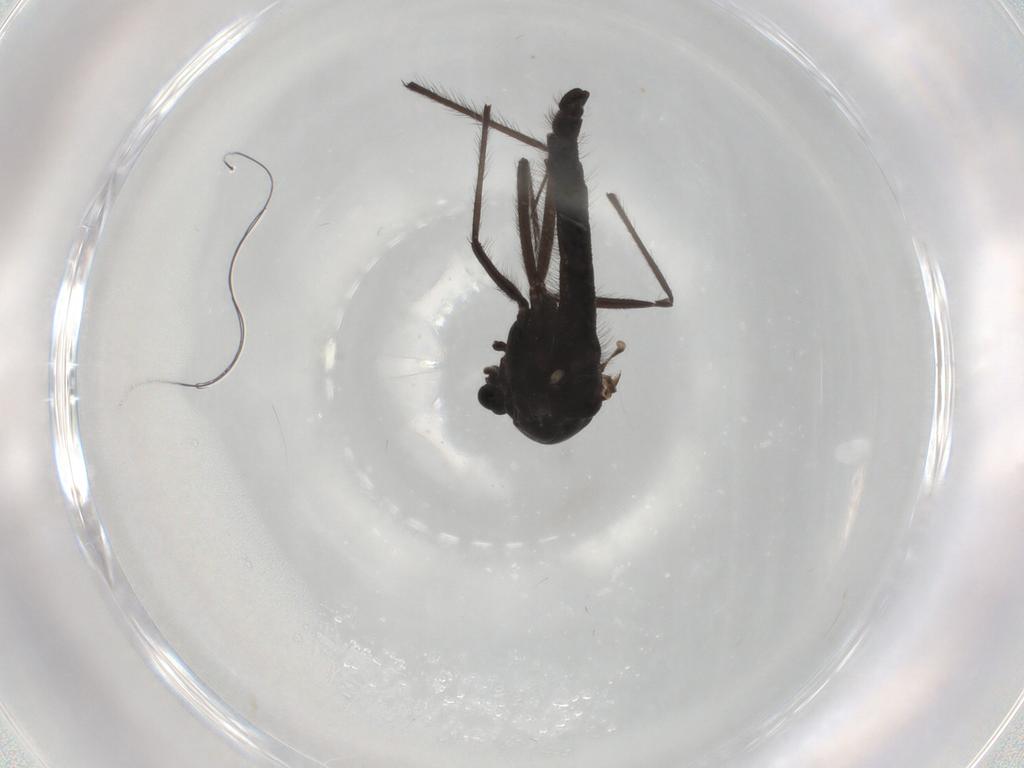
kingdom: Animalia
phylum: Arthropoda
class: Insecta
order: Diptera
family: Chironomidae
